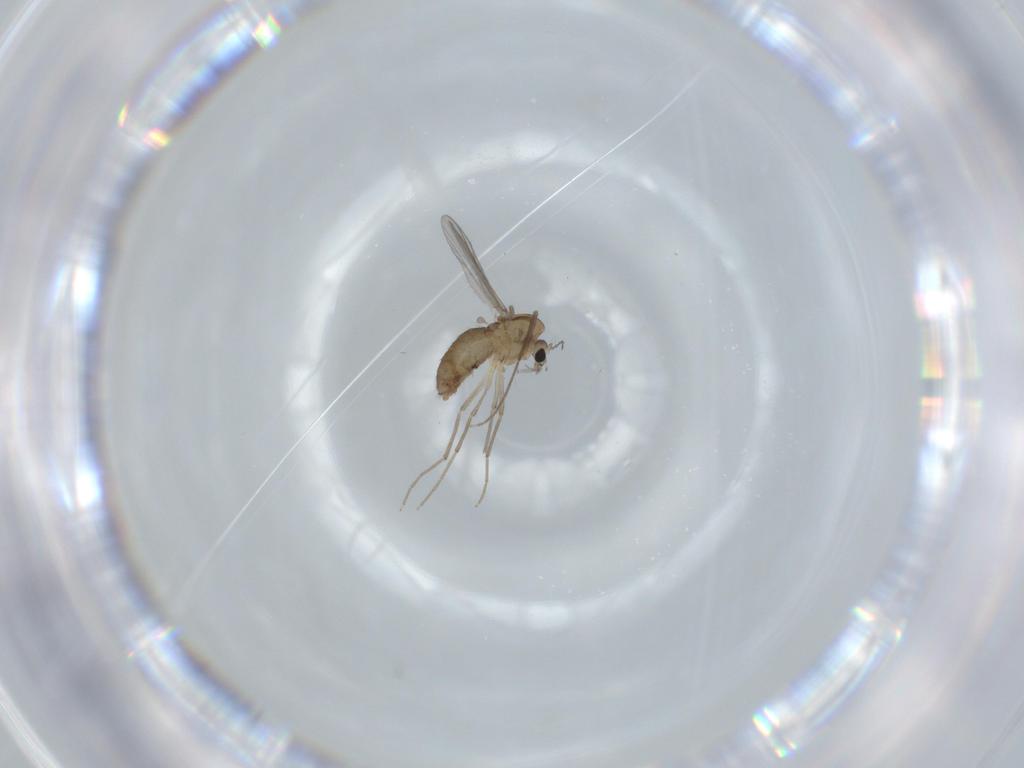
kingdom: Animalia
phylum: Arthropoda
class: Insecta
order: Diptera
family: Chironomidae
